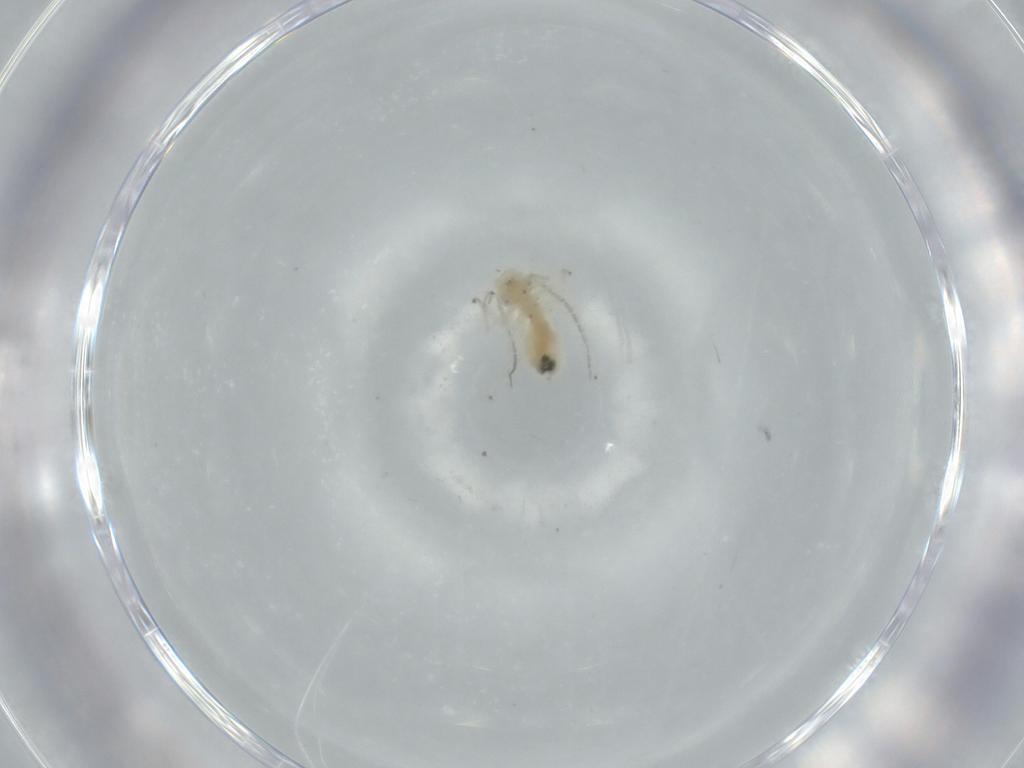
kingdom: Animalia
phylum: Arthropoda
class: Insecta
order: Psocodea
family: Caeciliusidae
